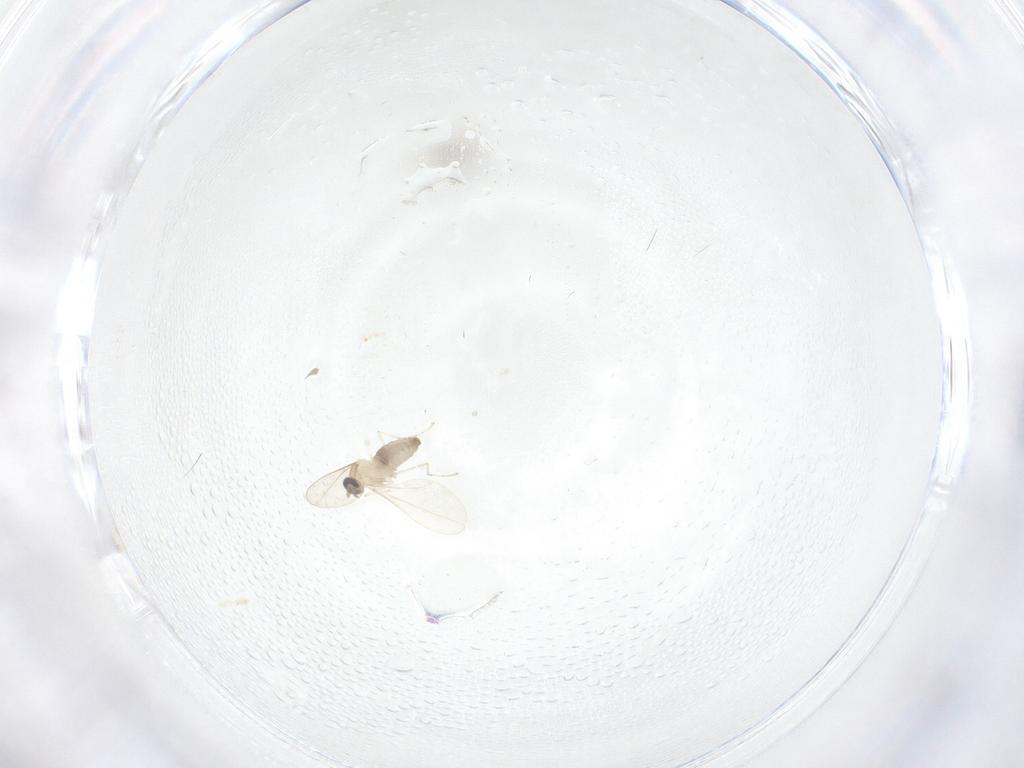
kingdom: Animalia
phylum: Arthropoda
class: Insecta
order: Diptera
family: Cecidomyiidae
